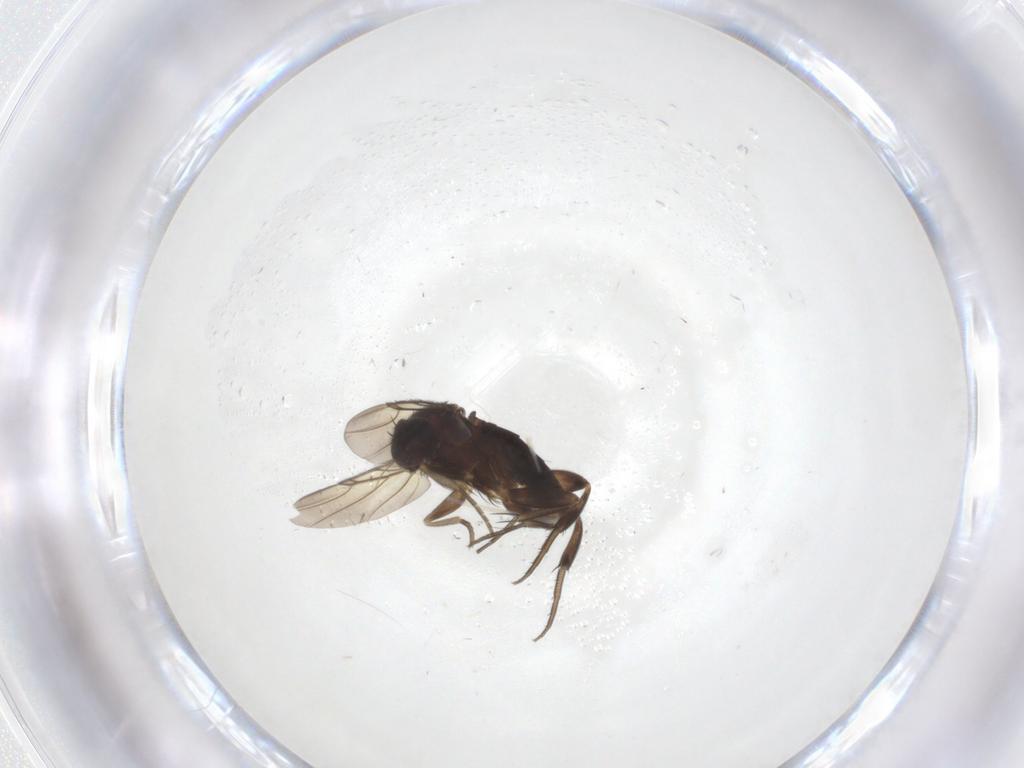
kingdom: Animalia
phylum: Arthropoda
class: Insecta
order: Diptera
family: Phoridae
